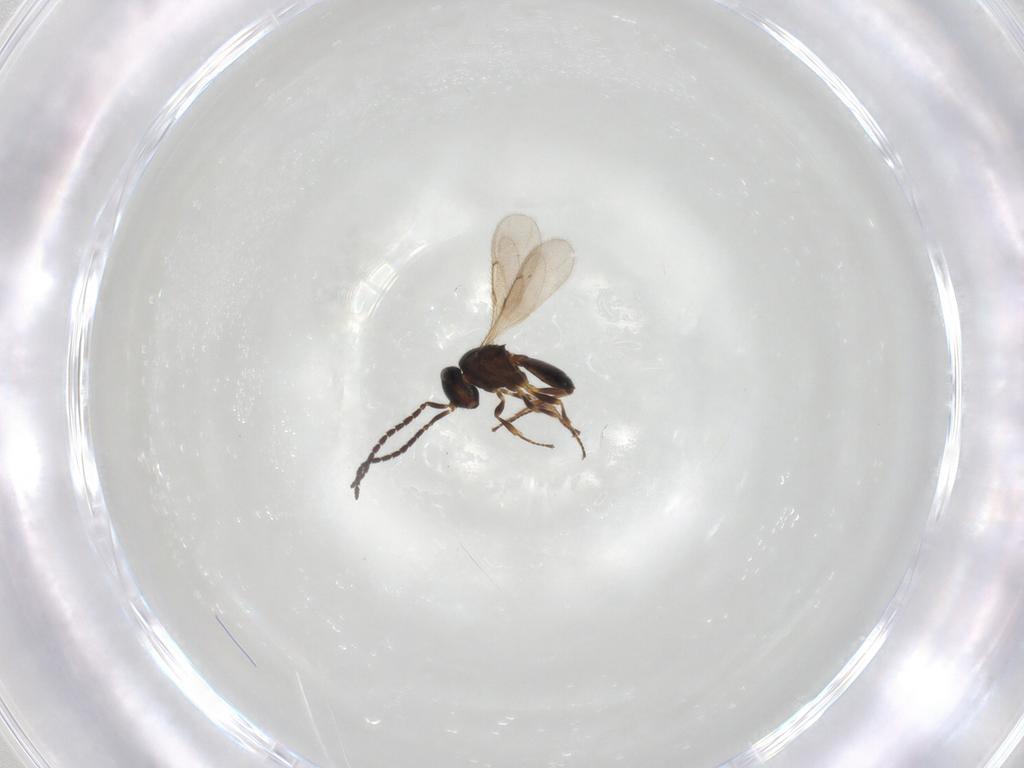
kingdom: Animalia
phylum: Arthropoda
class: Insecta
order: Hymenoptera
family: Scelionidae
